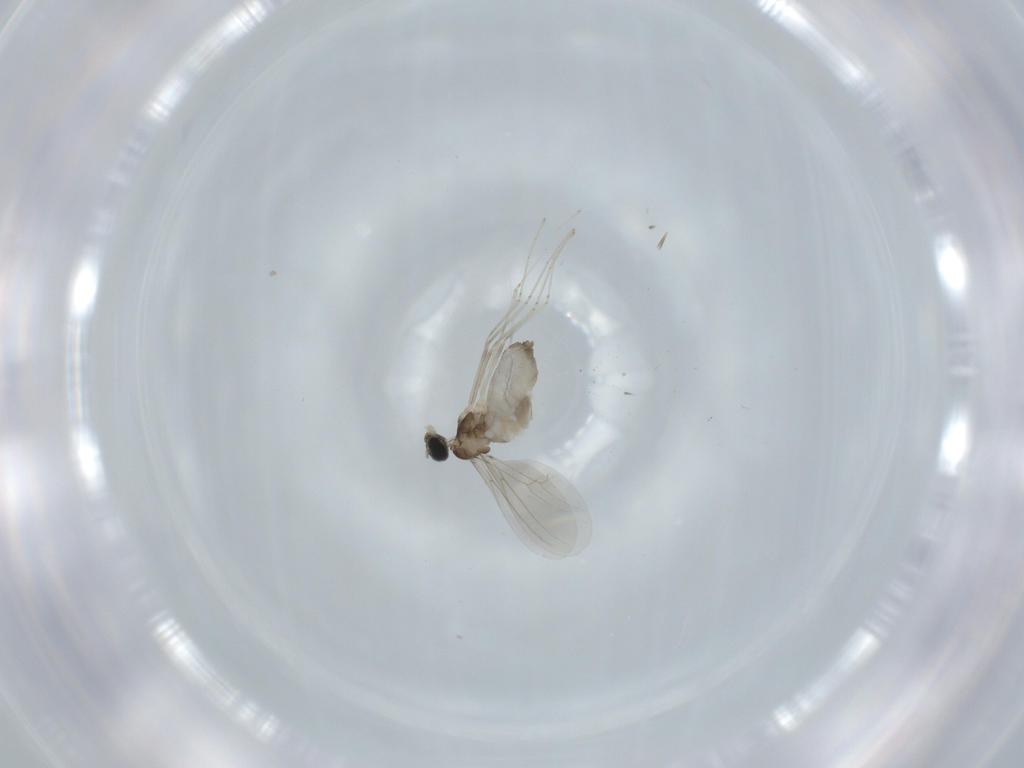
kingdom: Animalia
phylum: Arthropoda
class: Insecta
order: Diptera
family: Cecidomyiidae
